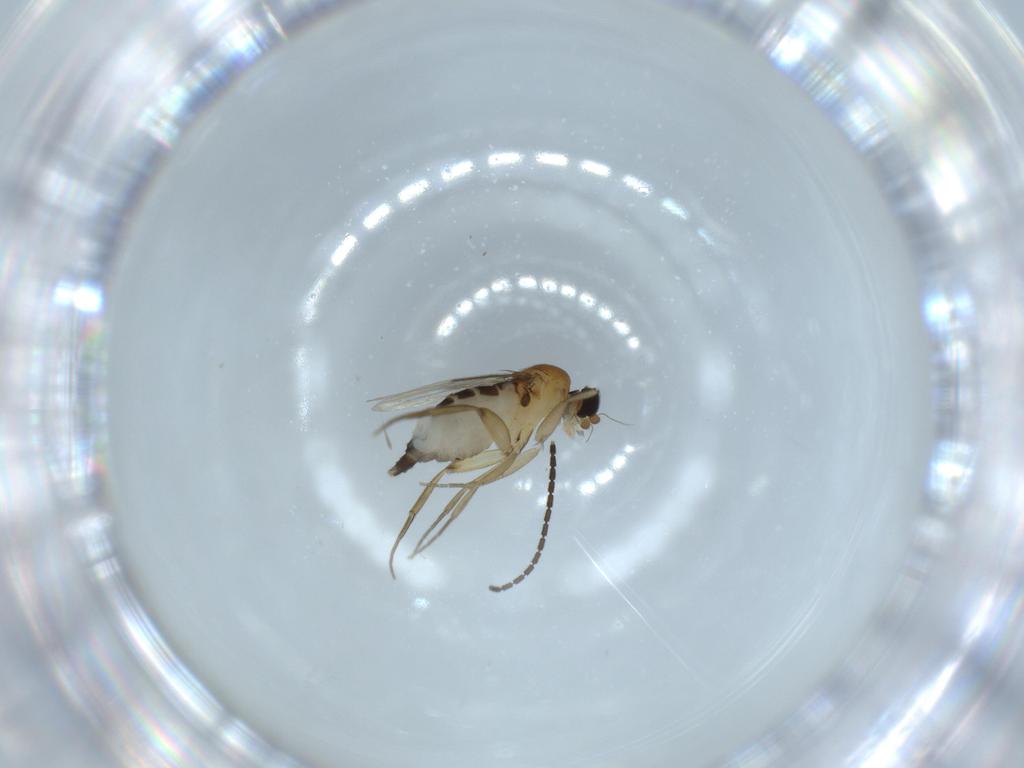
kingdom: Animalia
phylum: Arthropoda
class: Insecta
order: Diptera
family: Phoridae
